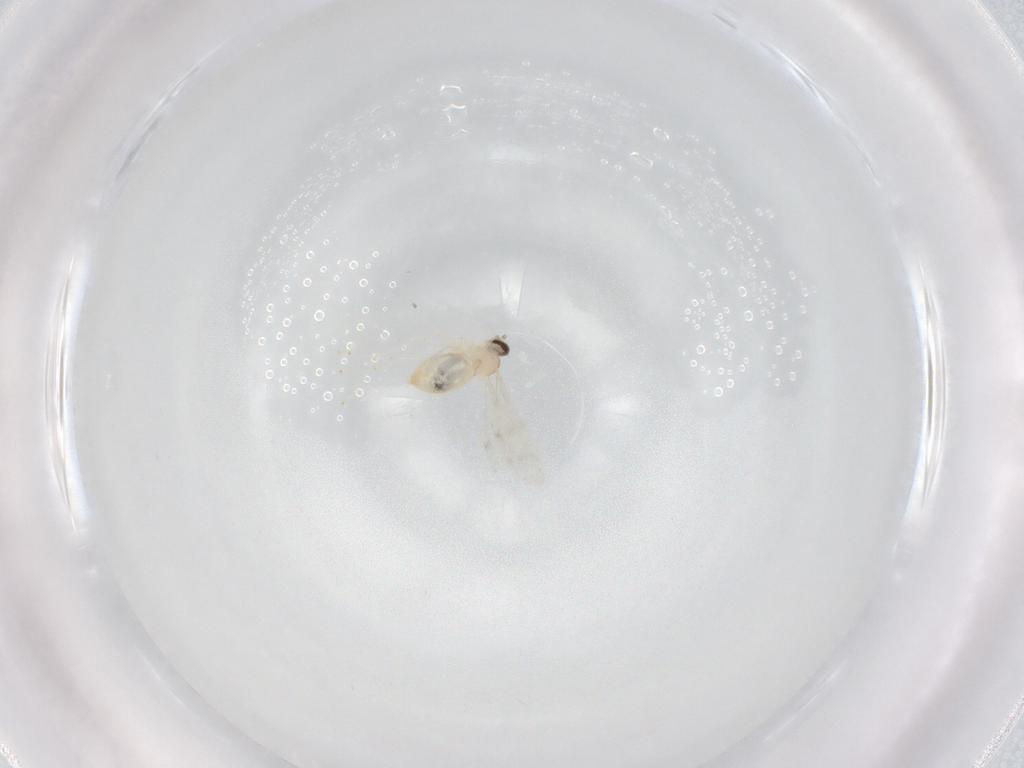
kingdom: Animalia
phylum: Arthropoda
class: Insecta
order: Diptera
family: Cecidomyiidae
